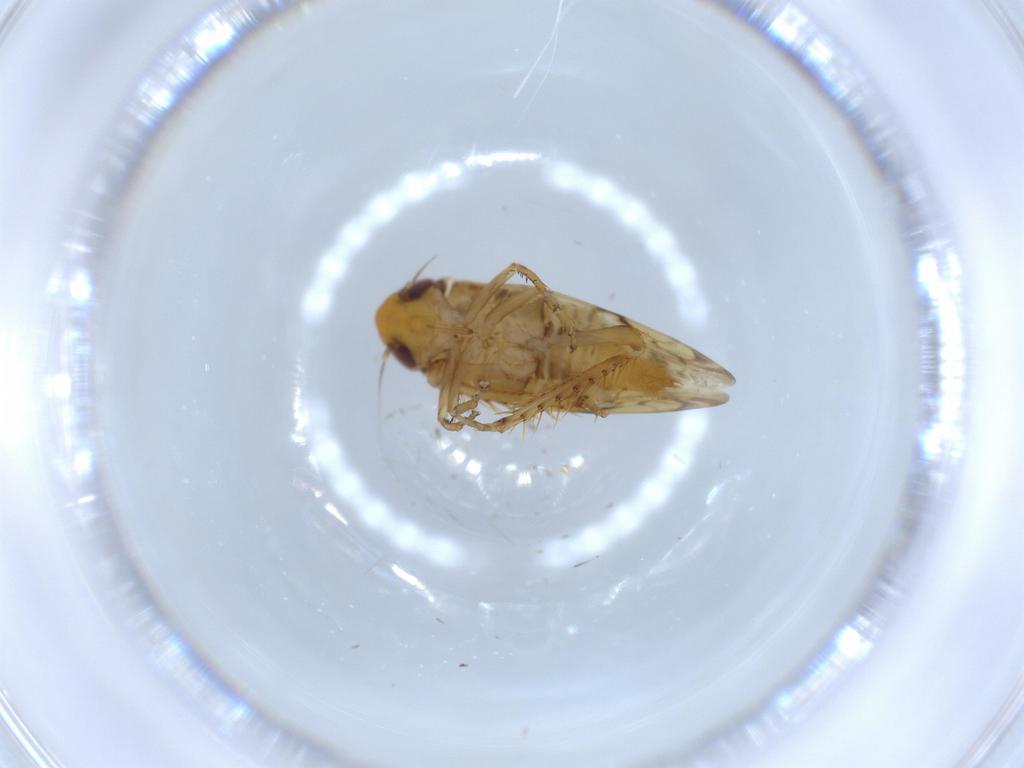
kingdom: Animalia
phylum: Arthropoda
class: Insecta
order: Hemiptera
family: Cicadellidae
